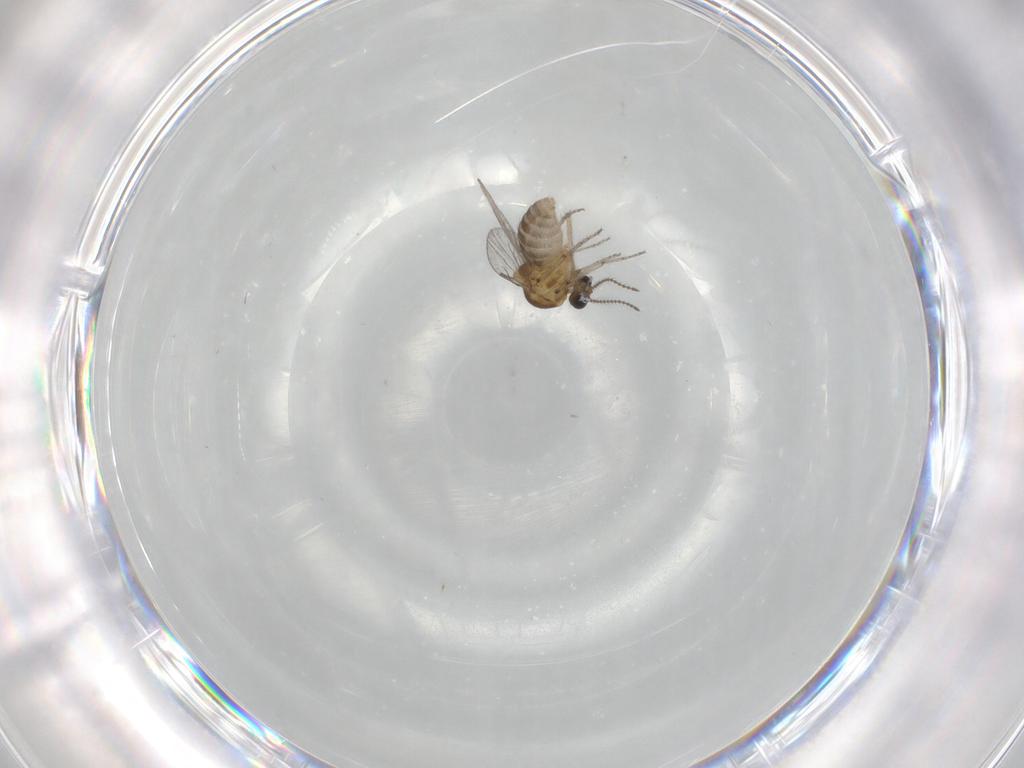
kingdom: Animalia
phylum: Arthropoda
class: Insecta
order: Diptera
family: Ceratopogonidae
